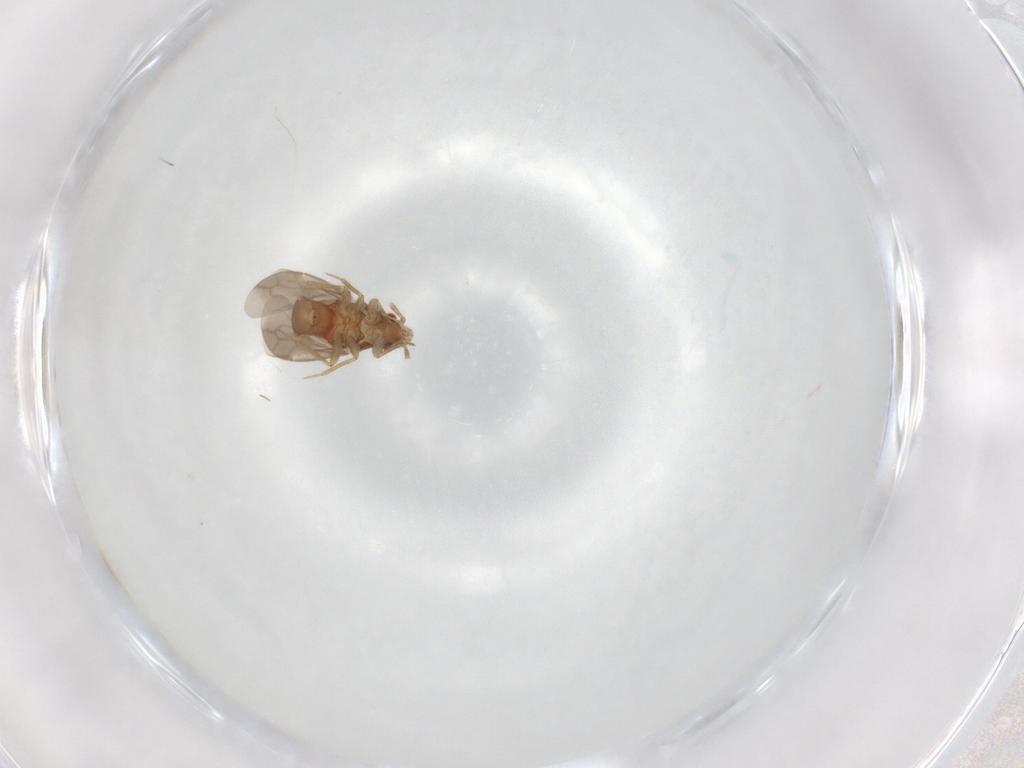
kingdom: Animalia
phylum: Arthropoda
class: Insecta
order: Hemiptera
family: Ceratocombidae
